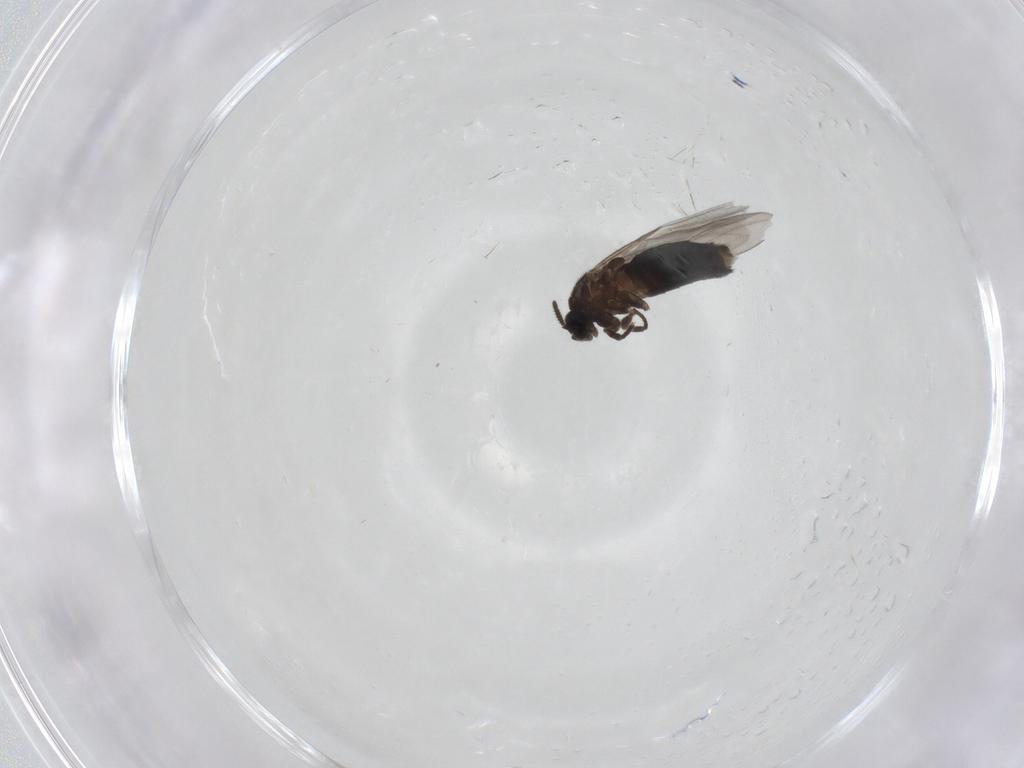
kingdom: Animalia
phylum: Arthropoda
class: Insecta
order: Diptera
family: Scatopsidae
